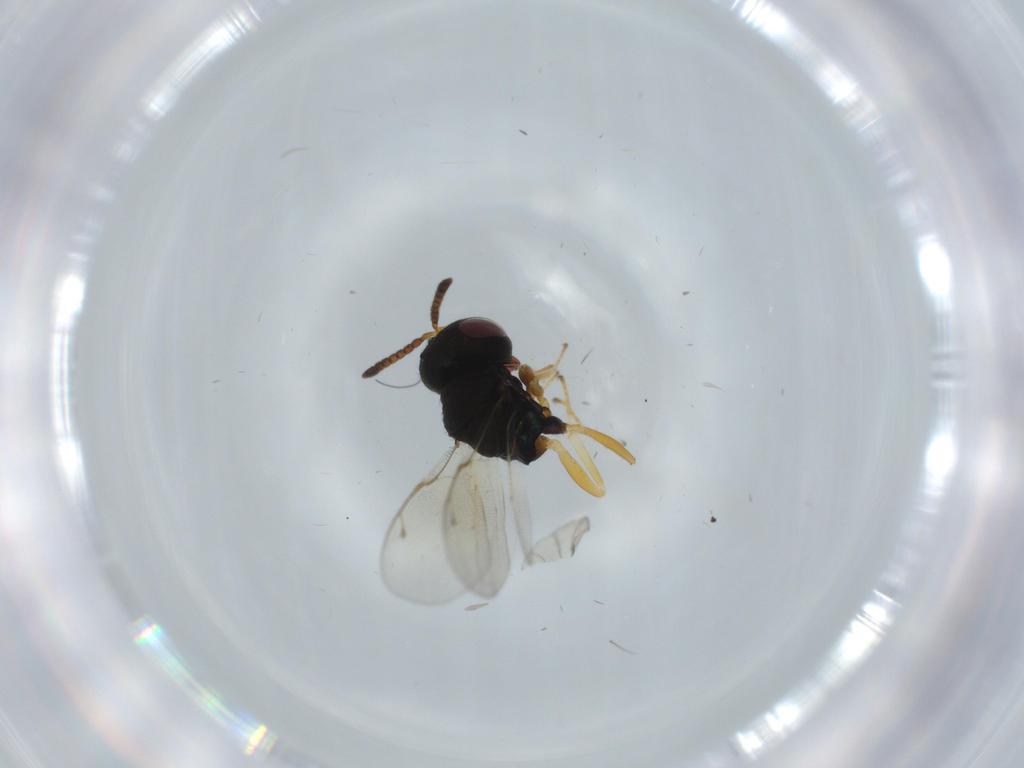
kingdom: Animalia
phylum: Arthropoda
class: Insecta
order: Hymenoptera
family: Pteromalidae
